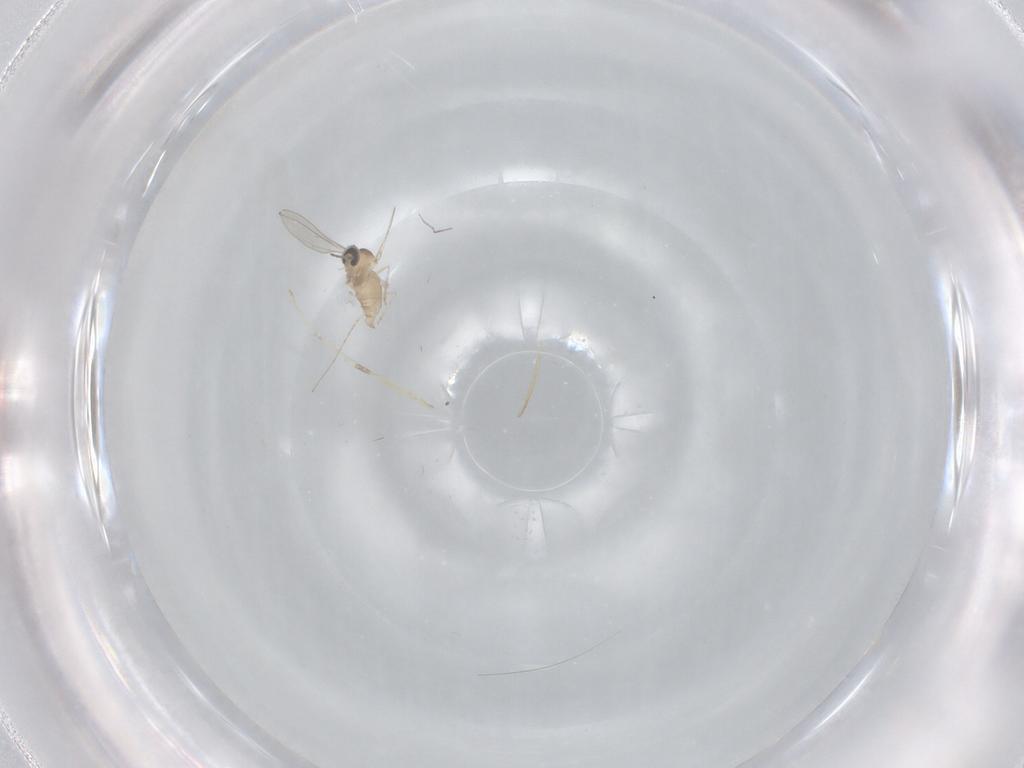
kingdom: Animalia
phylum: Arthropoda
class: Insecta
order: Diptera
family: Cecidomyiidae
